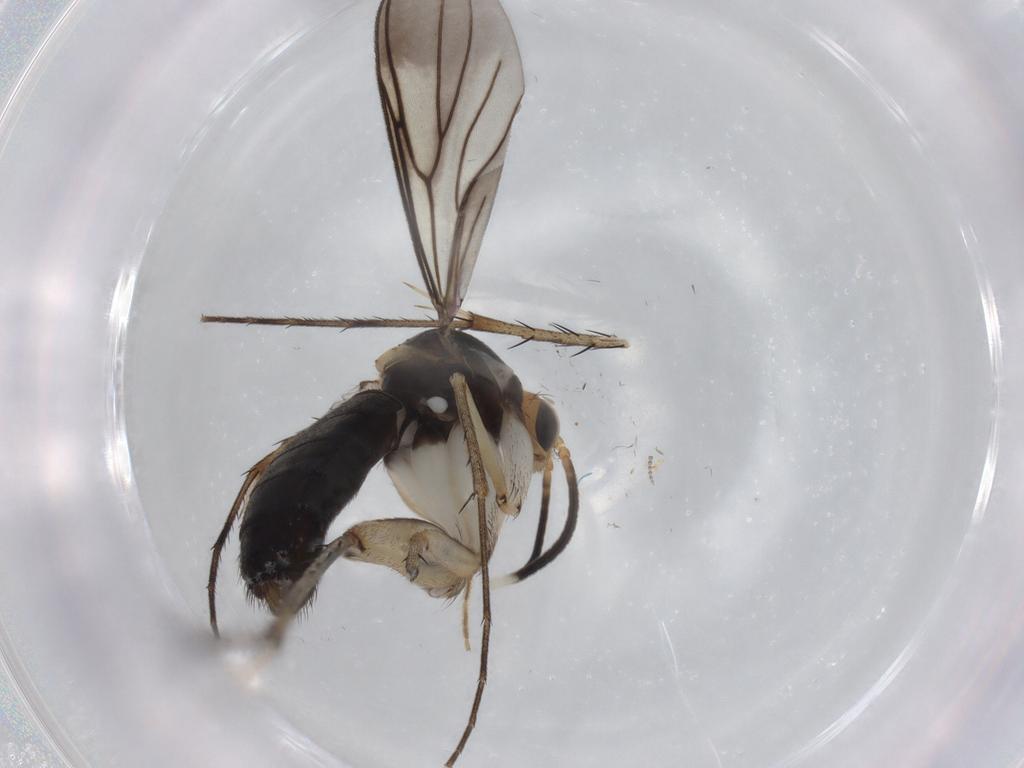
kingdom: Animalia
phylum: Arthropoda
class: Insecta
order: Diptera
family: Mycetophilidae
